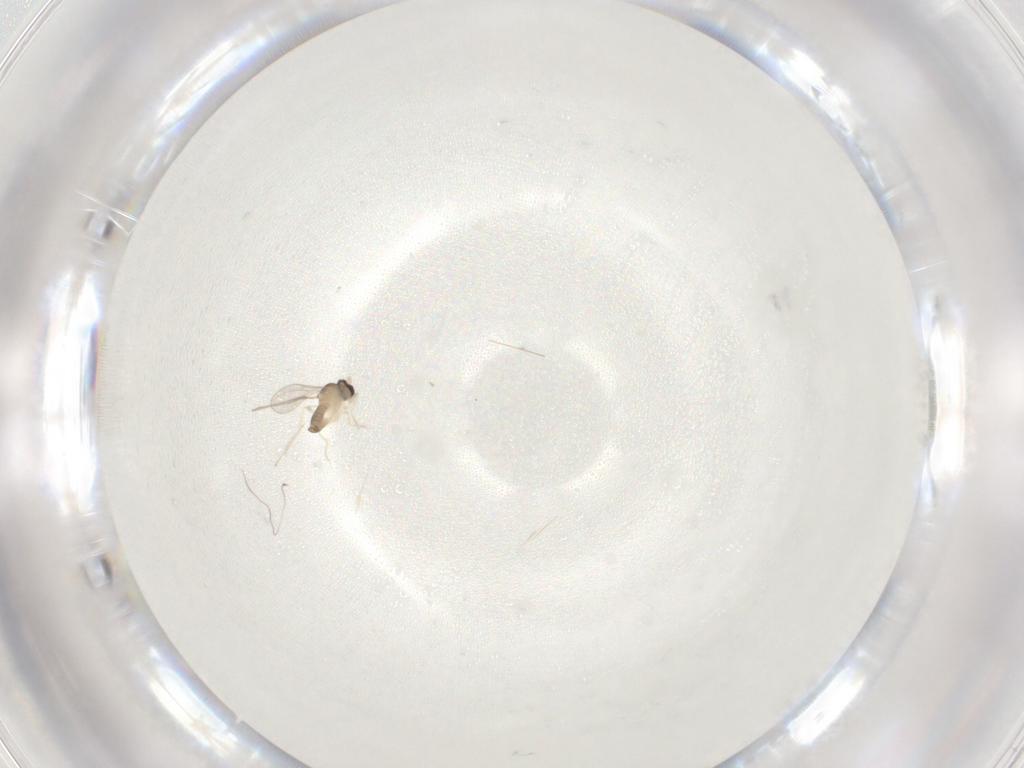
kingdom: Animalia
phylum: Arthropoda
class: Insecta
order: Diptera
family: Cecidomyiidae
